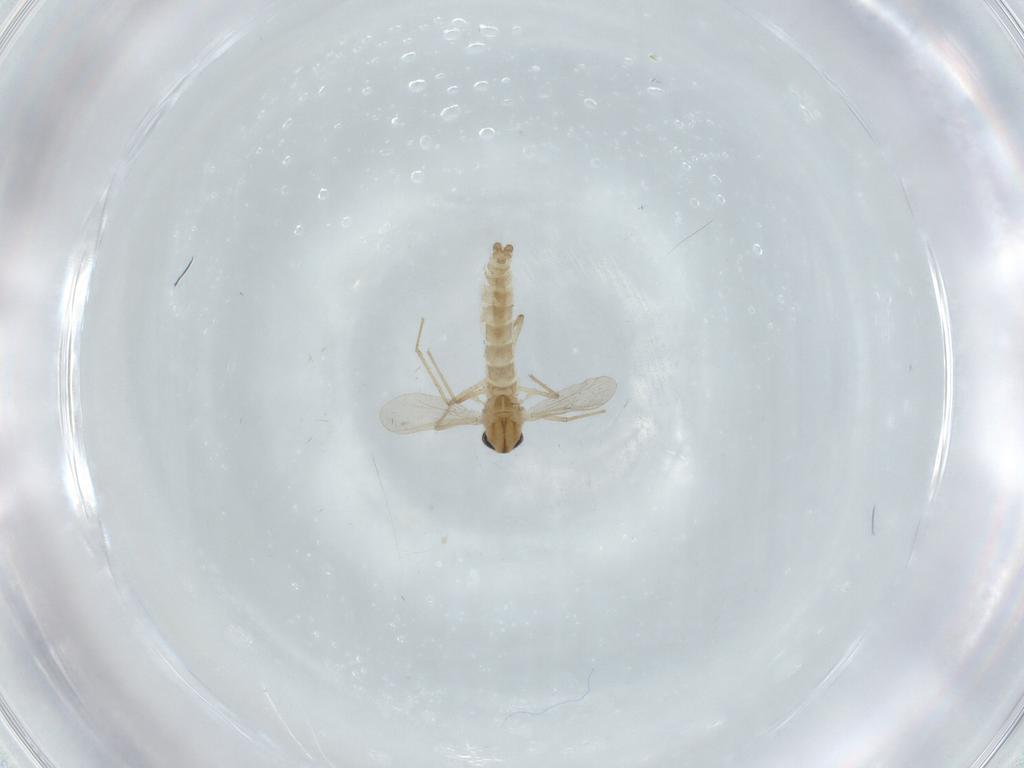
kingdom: Animalia
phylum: Arthropoda
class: Insecta
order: Diptera
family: Chironomidae
